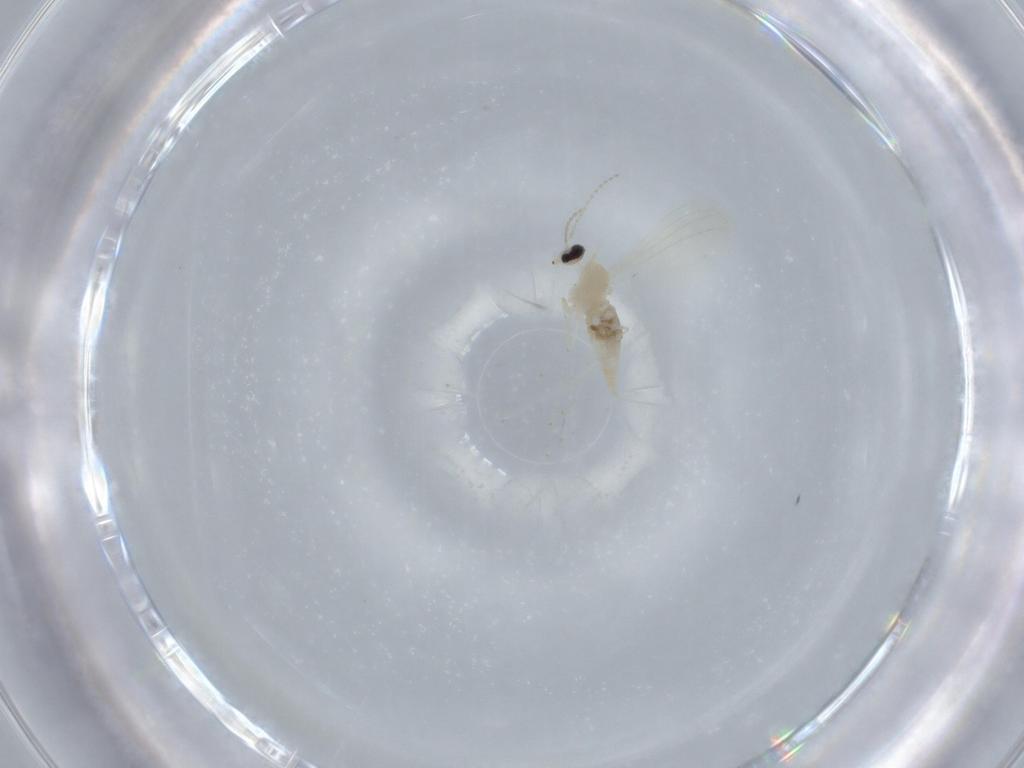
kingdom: Animalia
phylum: Arthropoda
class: Insecta
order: Diptera
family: Cecidomyiidae
